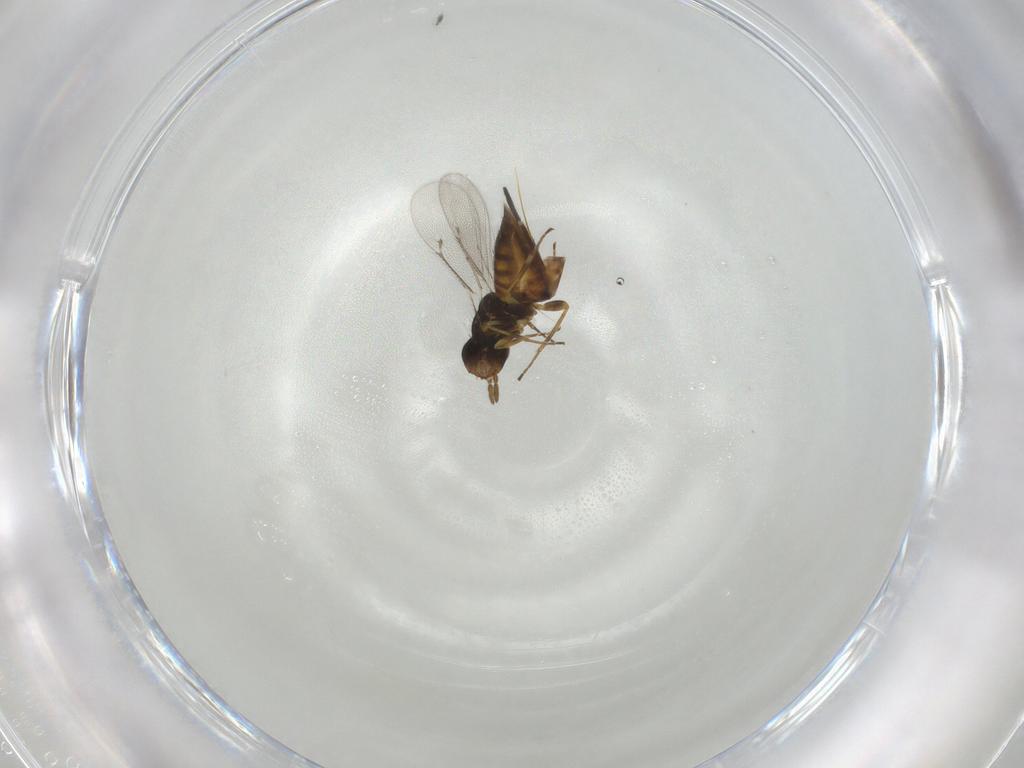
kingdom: Animalia
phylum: Arthropoda
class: Insecta
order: Hymenoptera
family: Eulophidae
